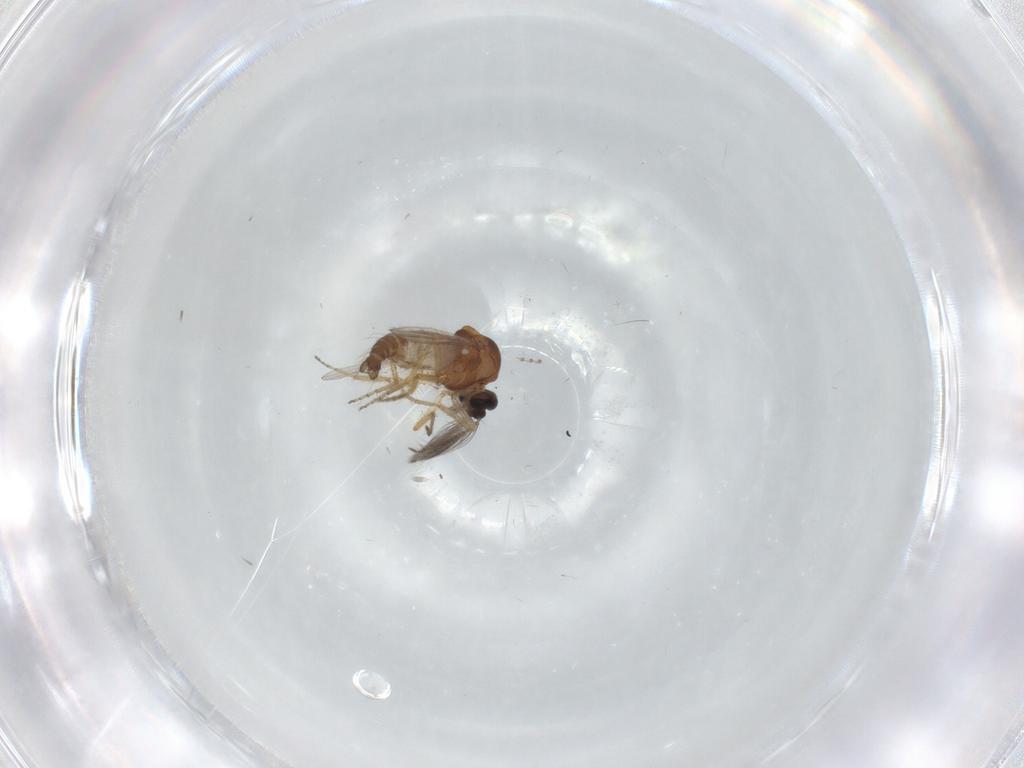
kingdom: Animalia
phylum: Arthropoda
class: Insecta
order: Diptera
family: Ceratopogonidae
